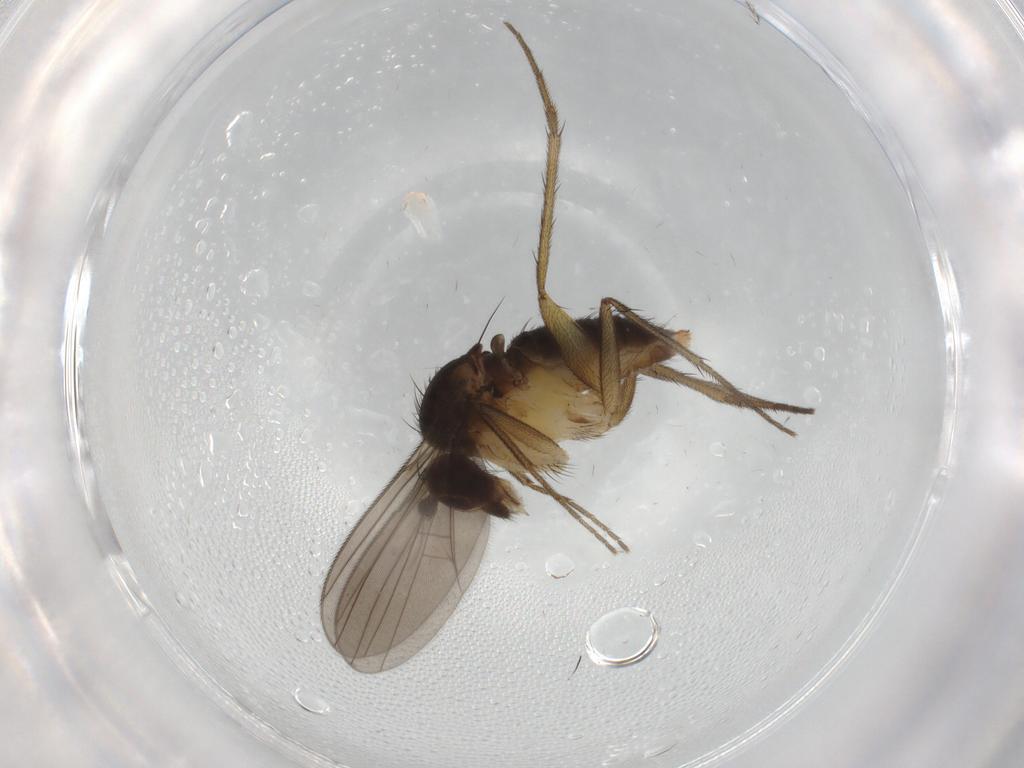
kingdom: Animalia
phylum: Arthropoda
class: Insecta
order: Diptera
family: Dolichopodidae
